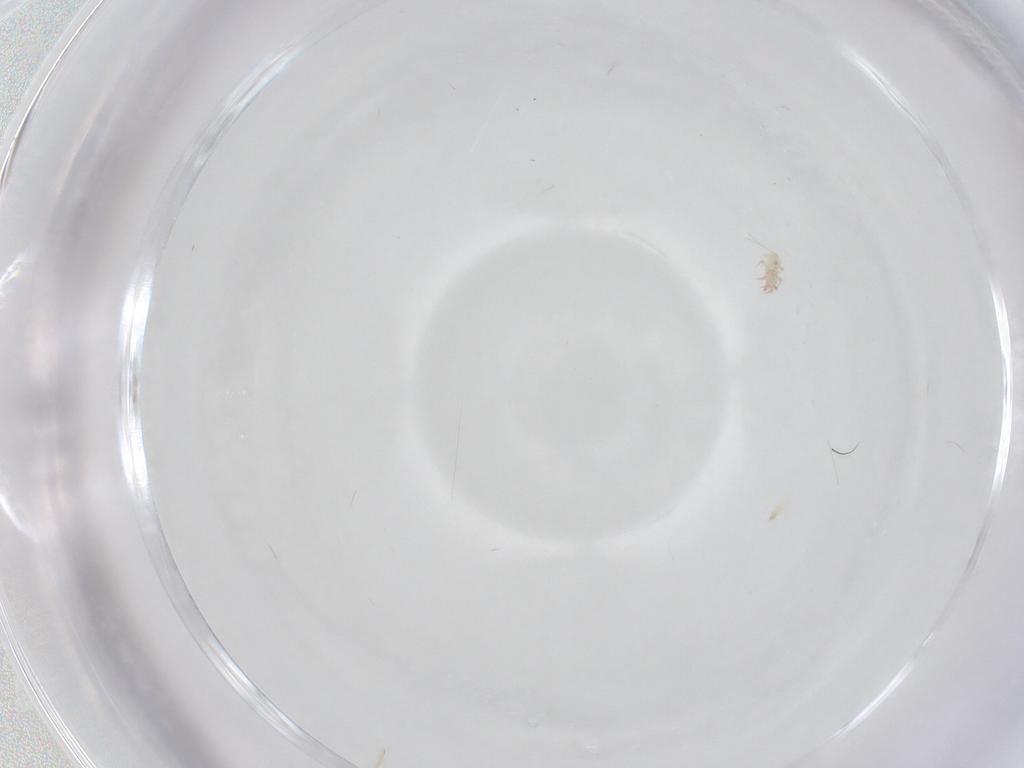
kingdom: Animalia
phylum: Arthropoda
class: Arachnida
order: Sarcoptiformes
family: Acaridae
